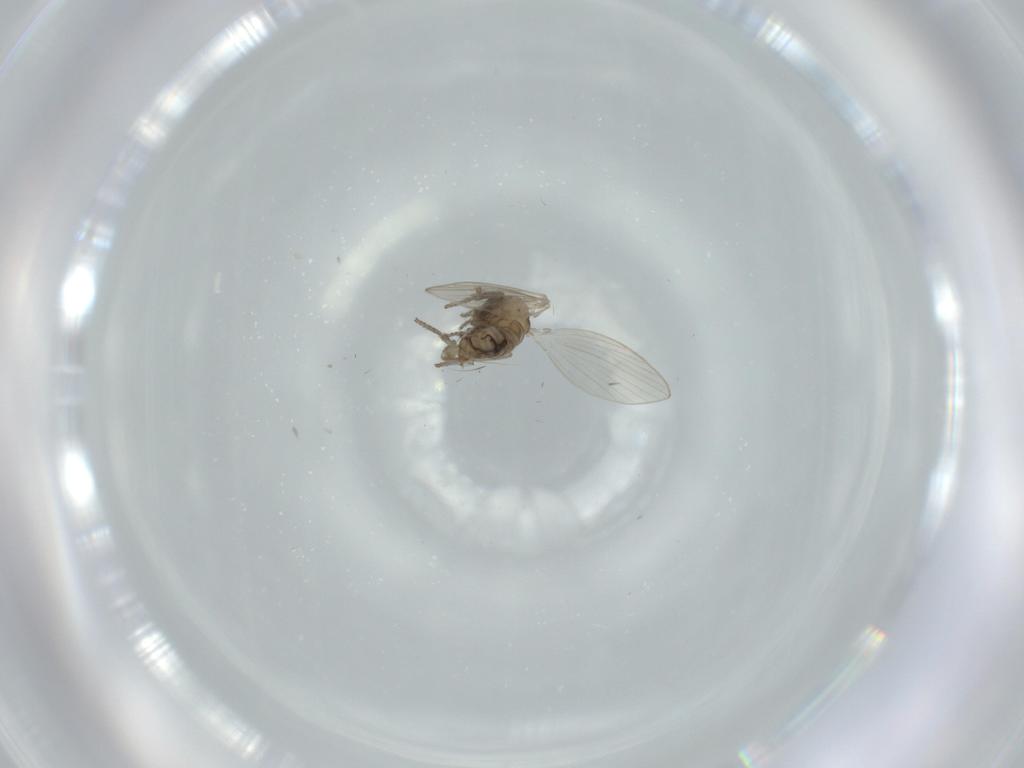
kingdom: Animalia
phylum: Arthropoda
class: Insecta
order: Diptera
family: Psychodidae
